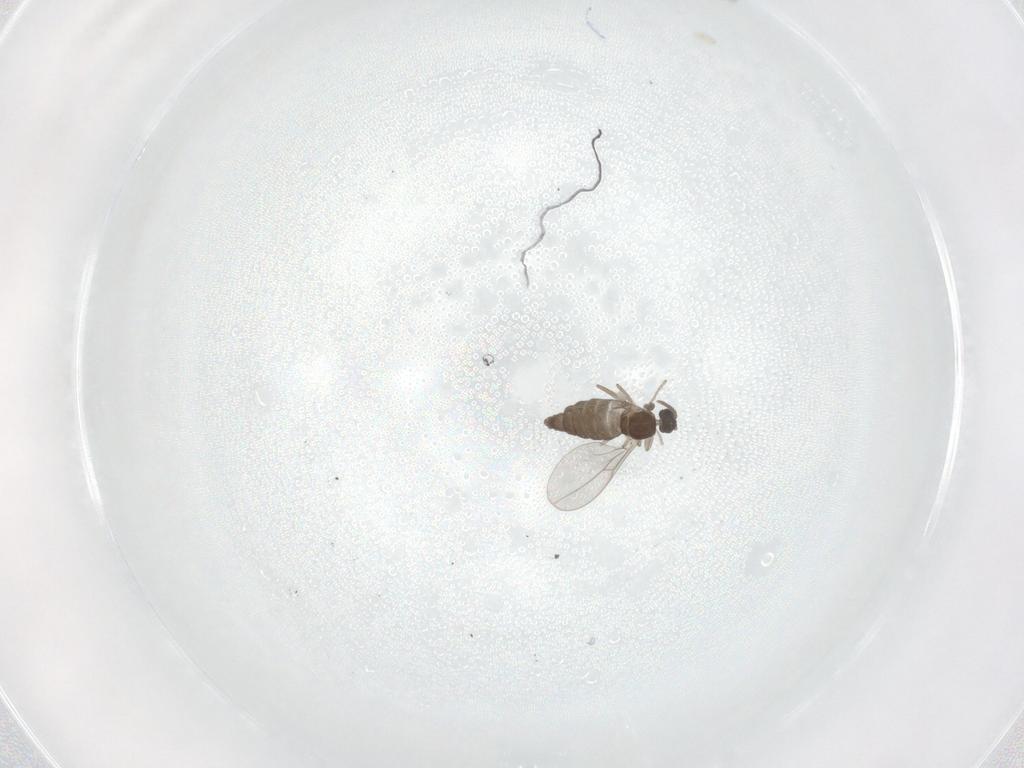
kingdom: Animalia
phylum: Arthropoda
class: Insecta
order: Diptera
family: Cecidomyiidae
